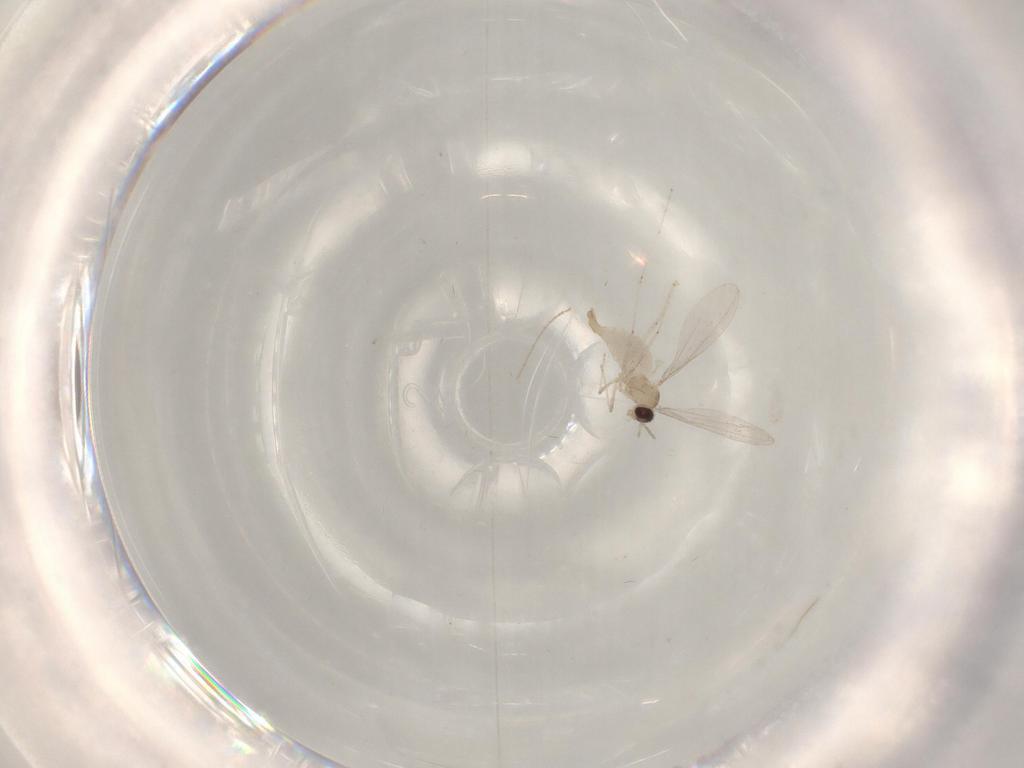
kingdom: Animalia
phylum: Arthropoda
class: Insecta
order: Diptera
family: Cecidomyiidae
